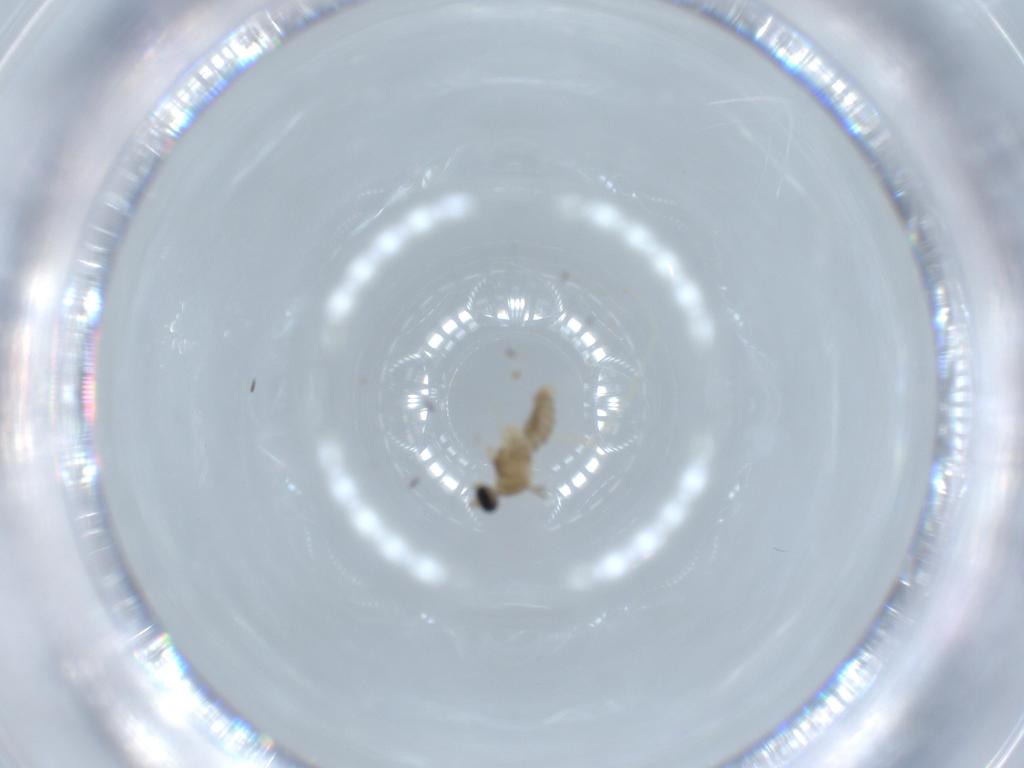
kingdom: Animalia
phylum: Arthropoda
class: Insecta
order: Diptera
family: Cecidomyiidae
